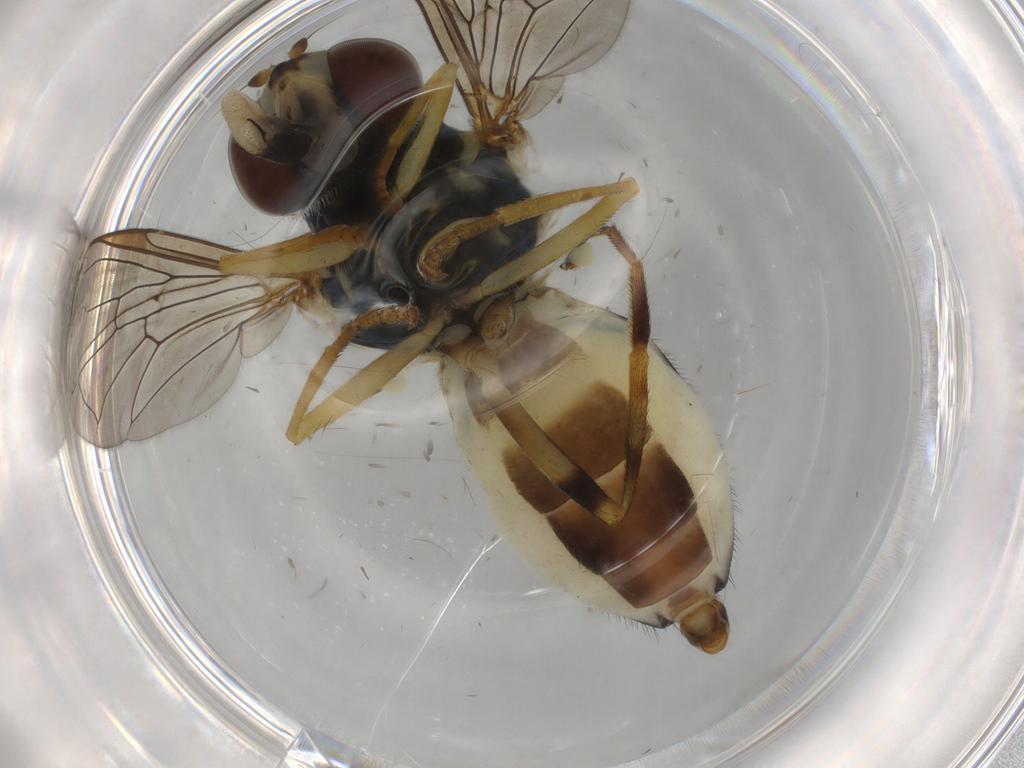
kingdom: Animalia
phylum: Arthropoda
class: Insecta
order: Diptera
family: Syrphidae
